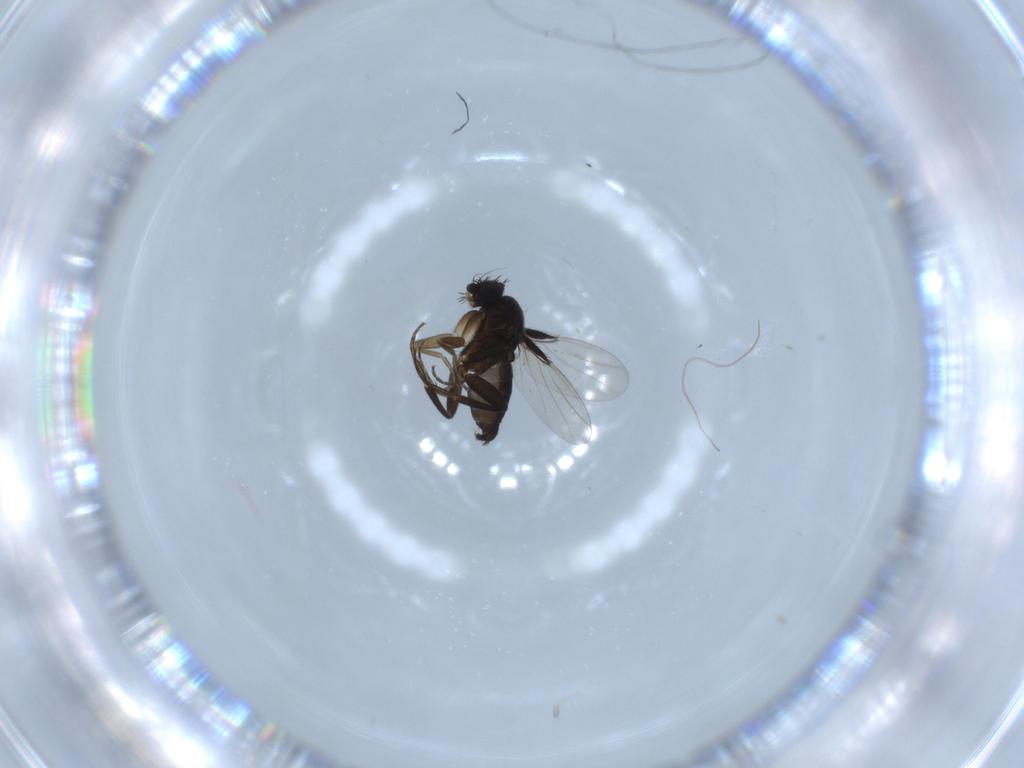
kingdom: Animalia
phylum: Arthropoda
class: Insecta
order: Diptera
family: Phoridae
